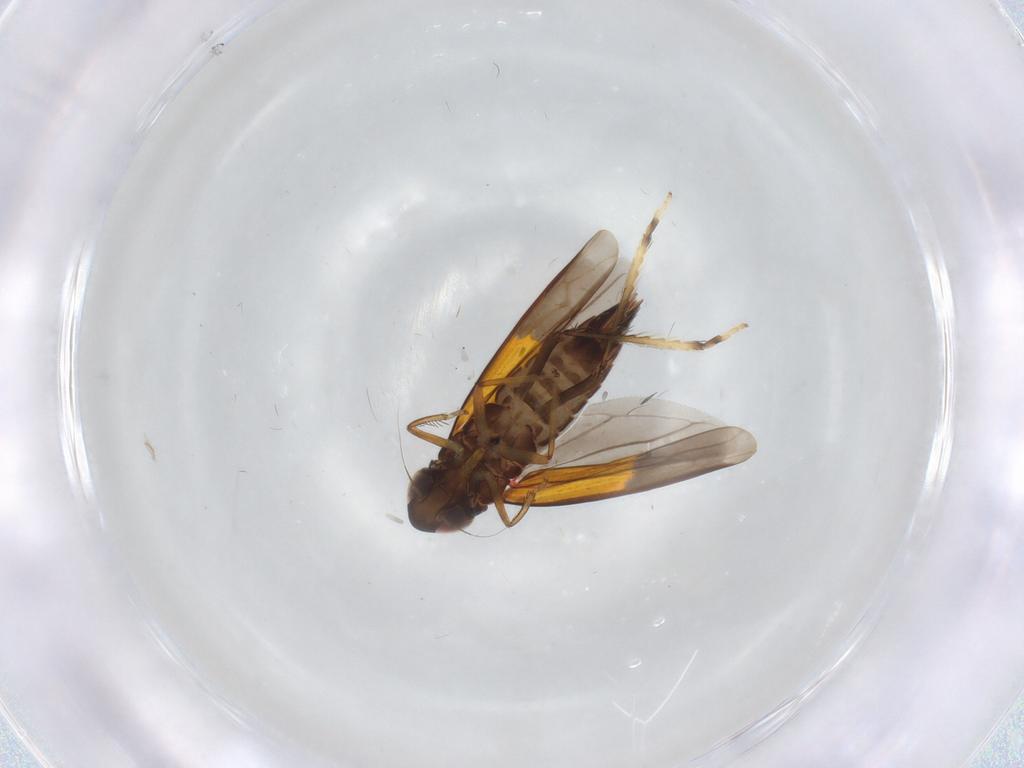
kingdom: Animalia
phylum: Arthropoda
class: Insecta
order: Hemiptera
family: Cicadellidae
